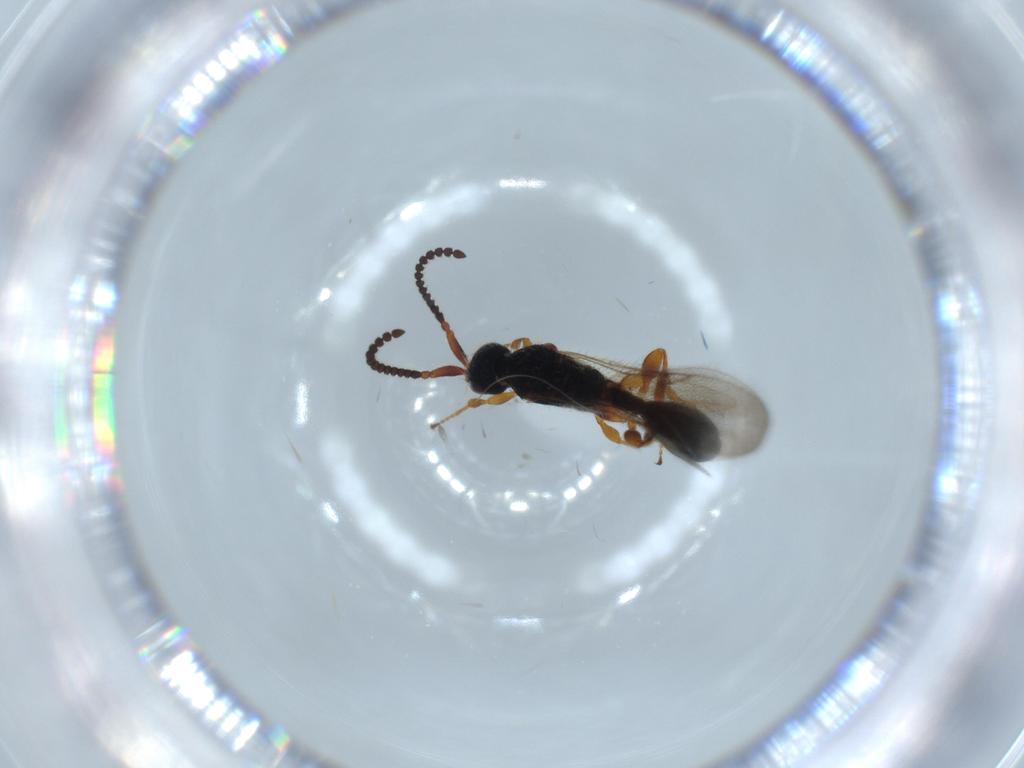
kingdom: Animalia
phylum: Arthropoda
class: Insecta
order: Hymenoptera
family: Diapriidae
